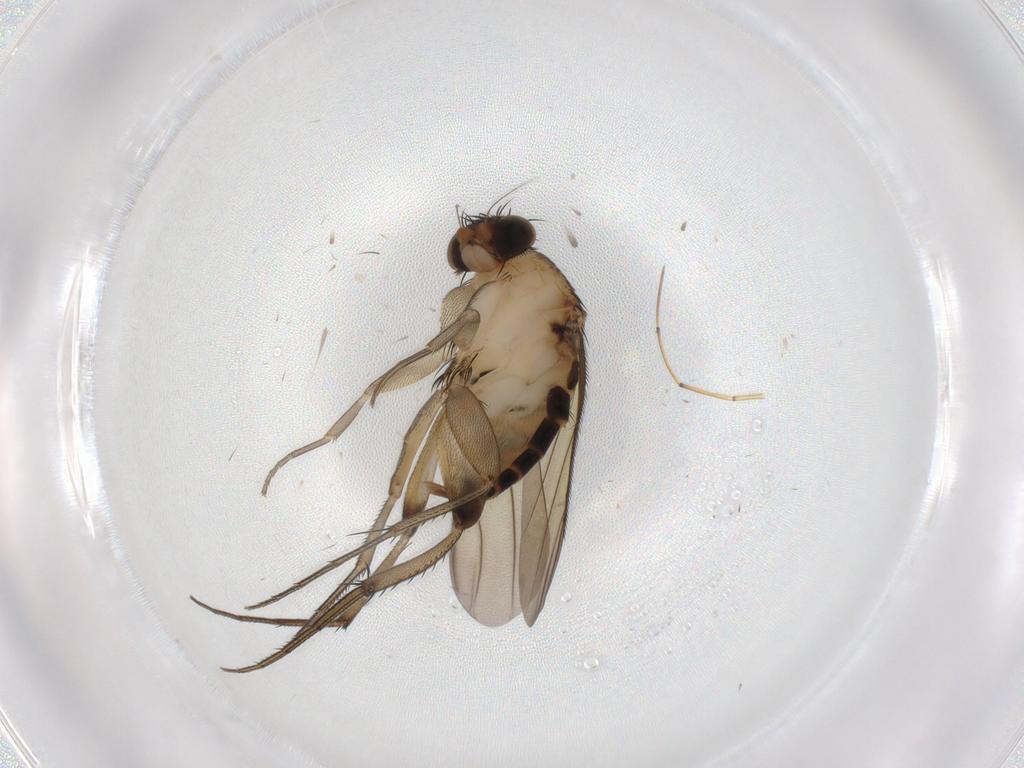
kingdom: Animalia
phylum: Arthropoda
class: Insecta
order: Diptera
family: Phoridae
